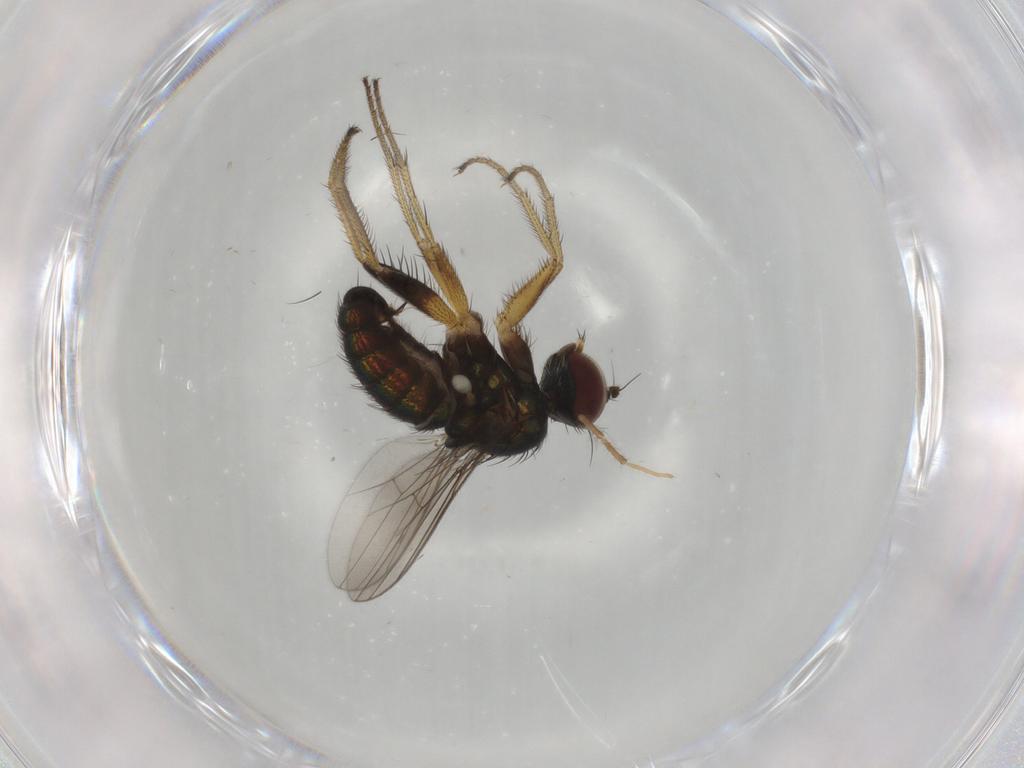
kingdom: Animalia
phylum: Arthropoda
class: Insecta
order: Diptera
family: Dolichopodidae
